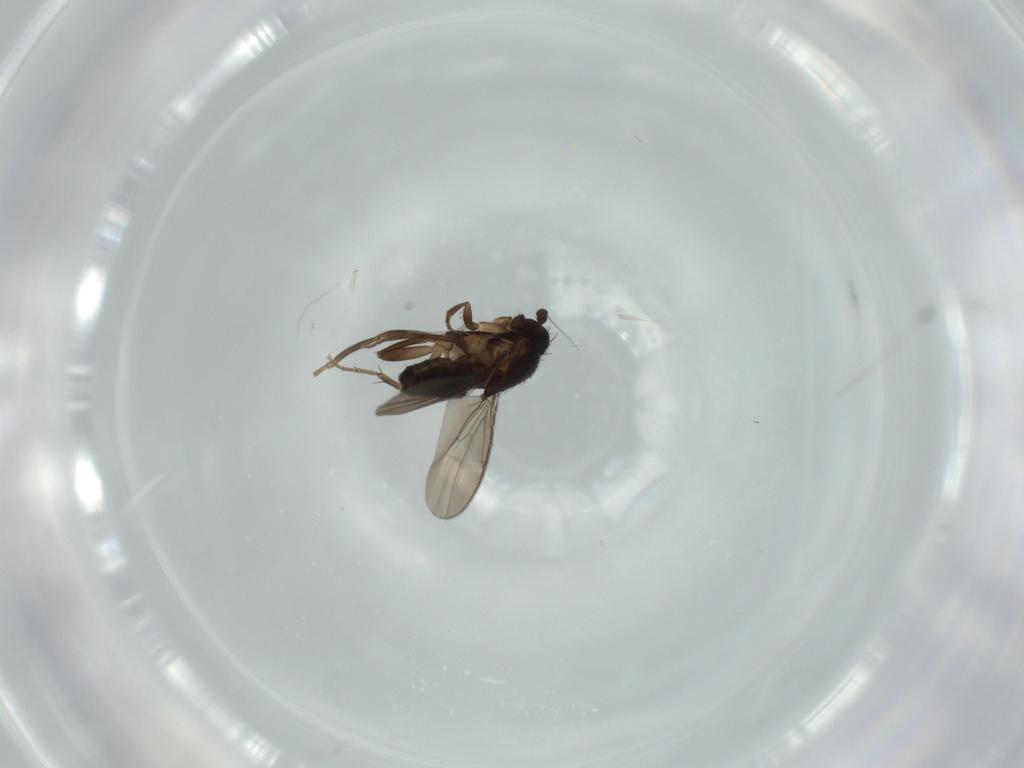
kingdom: Animalia
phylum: Arthropoda
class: Insecta
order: Diptera
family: Sphaeroceridae
